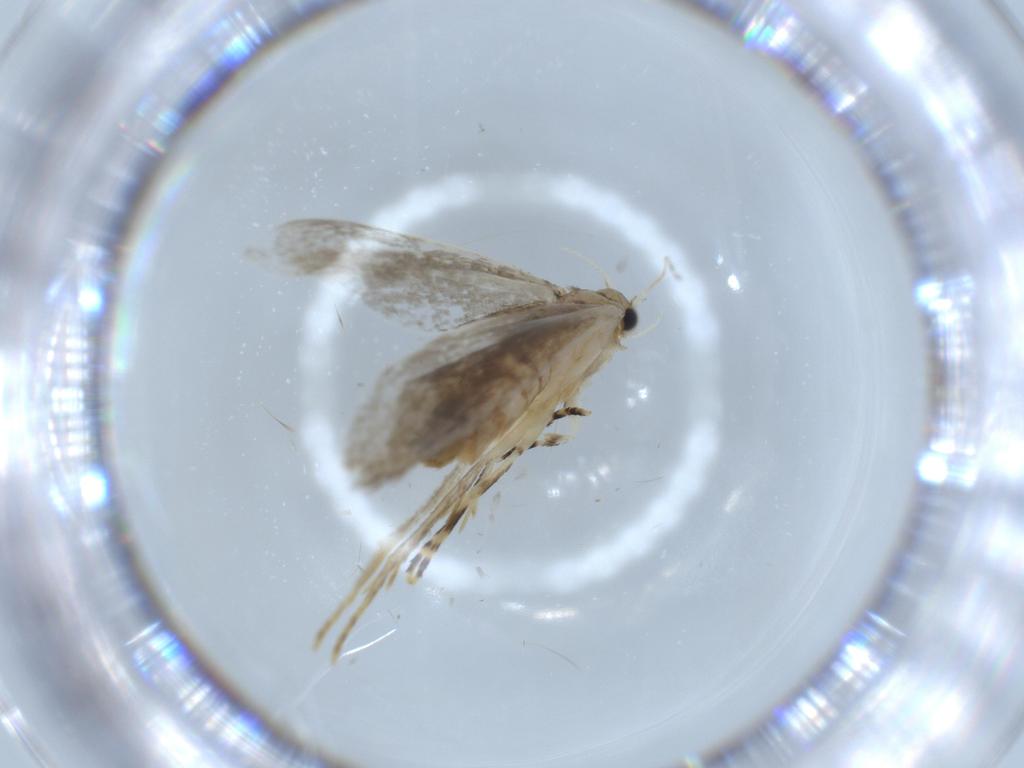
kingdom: Animalia
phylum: Arthropoda
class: Insecta
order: Lepidoptera
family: Tineidae
